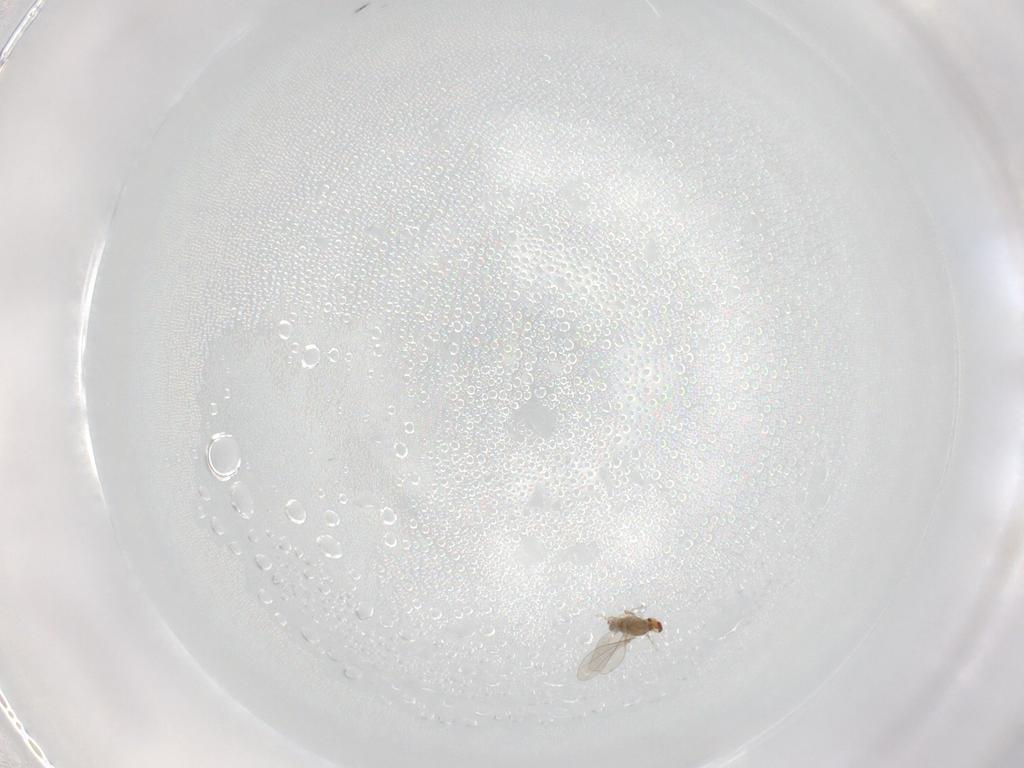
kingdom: Animalia
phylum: Arthropoda
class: Insecta
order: Diptera
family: Cecidomyiidae
